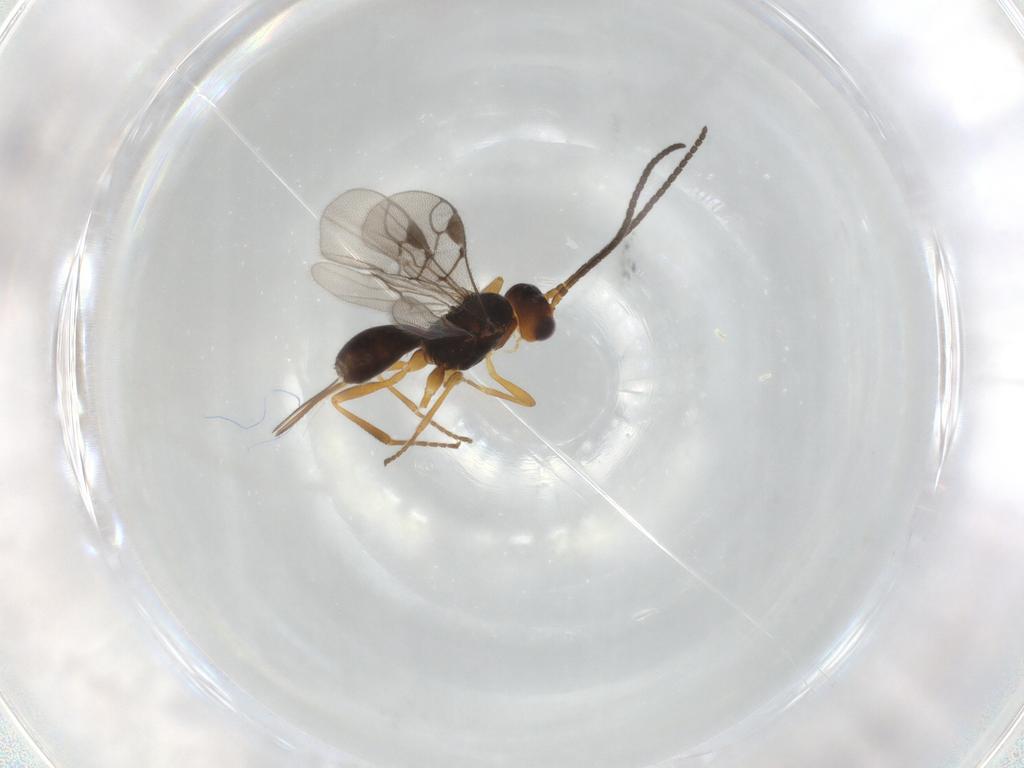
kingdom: Animalia
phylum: Arthropoda
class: Insecta
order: Hymenoptera
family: Braconidae
